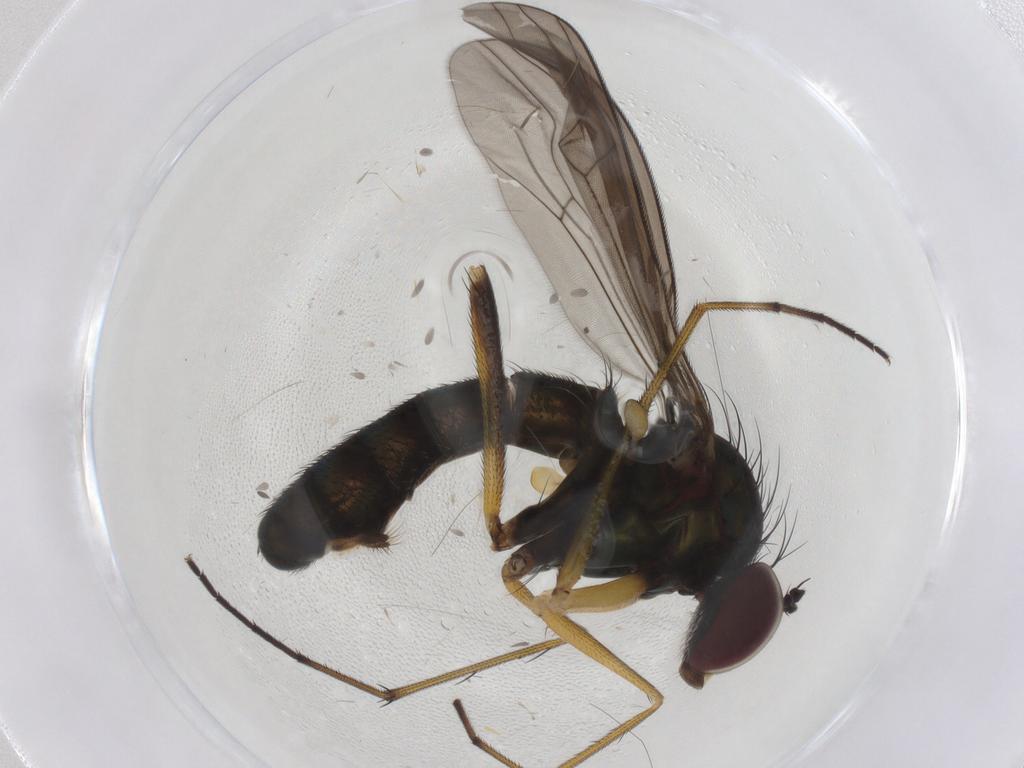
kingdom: Animalia
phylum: Arthropoda
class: Insecta
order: Diptera
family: Dolichopodidae
